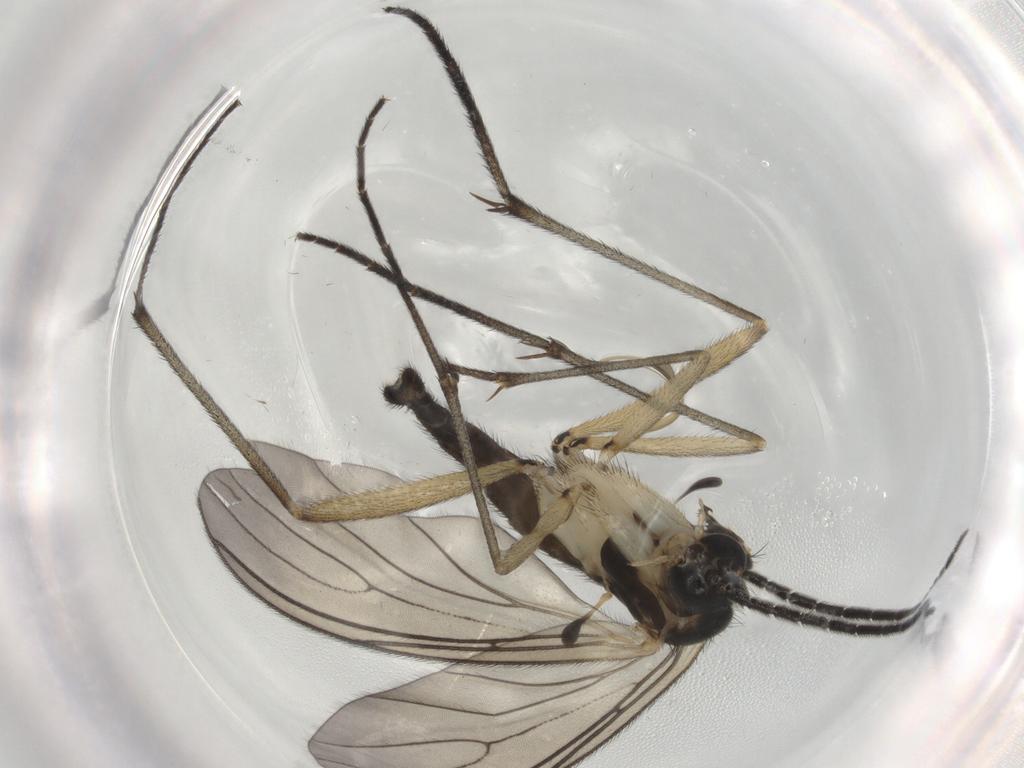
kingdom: Animalia
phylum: Arthropoda
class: Insecta
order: Diptera
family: Sciaridae
